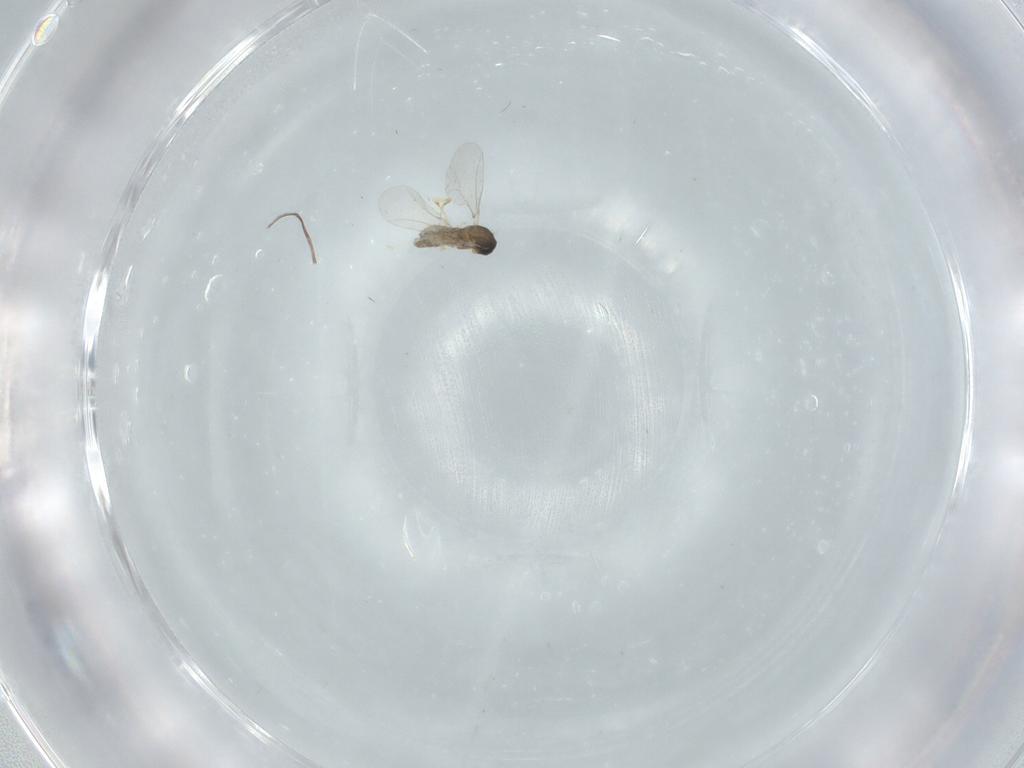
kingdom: Animalia
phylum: Arthropoda
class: Insecta
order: Diptera
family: Cecidomyiidae
